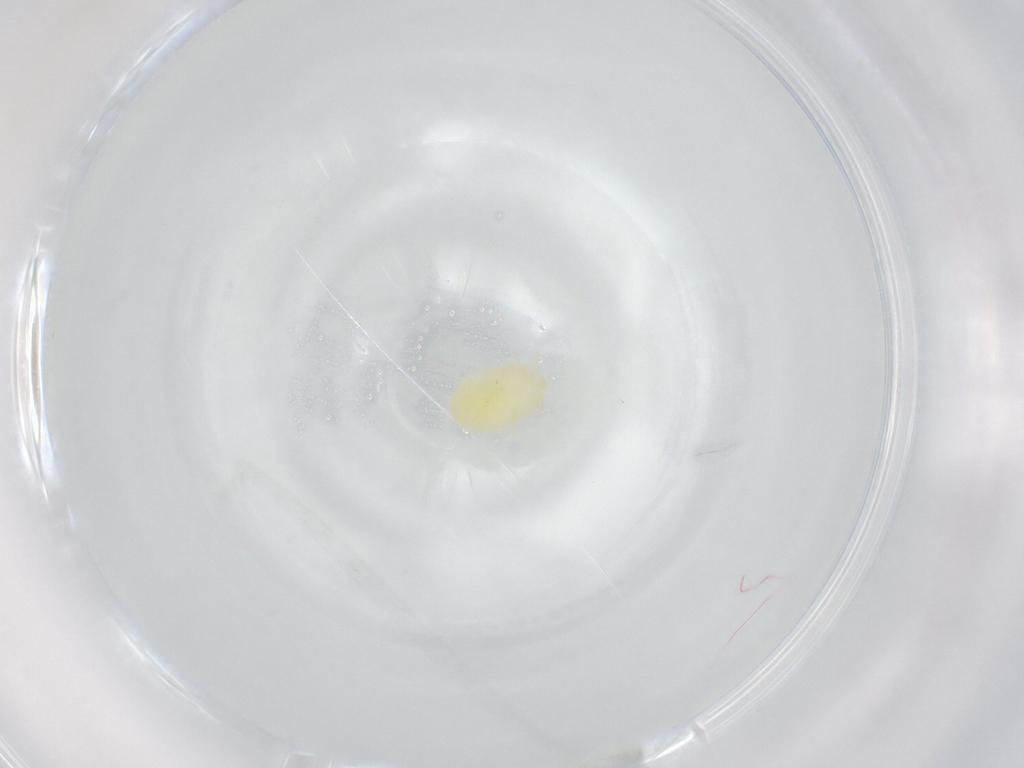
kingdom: Animalia
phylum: Arthropoda
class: Arachnida
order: Trombidiformes
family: Trombidiidae
